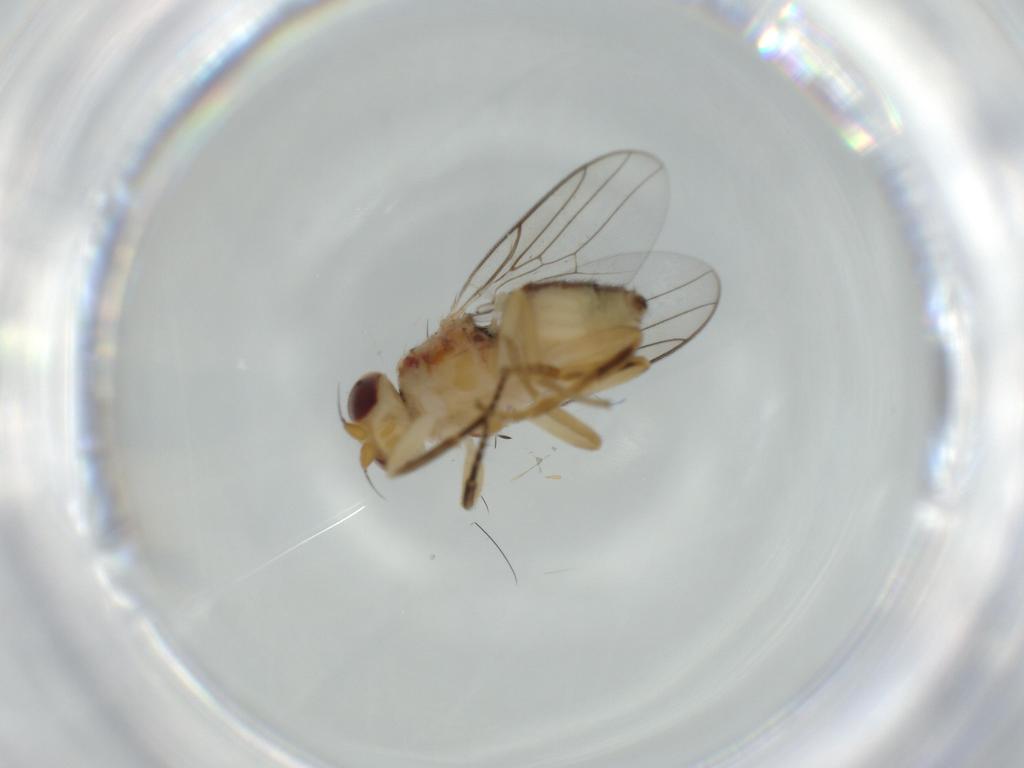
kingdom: Animalia
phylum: Arthropoda
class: Insecta
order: Diptera
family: Chloropidae
